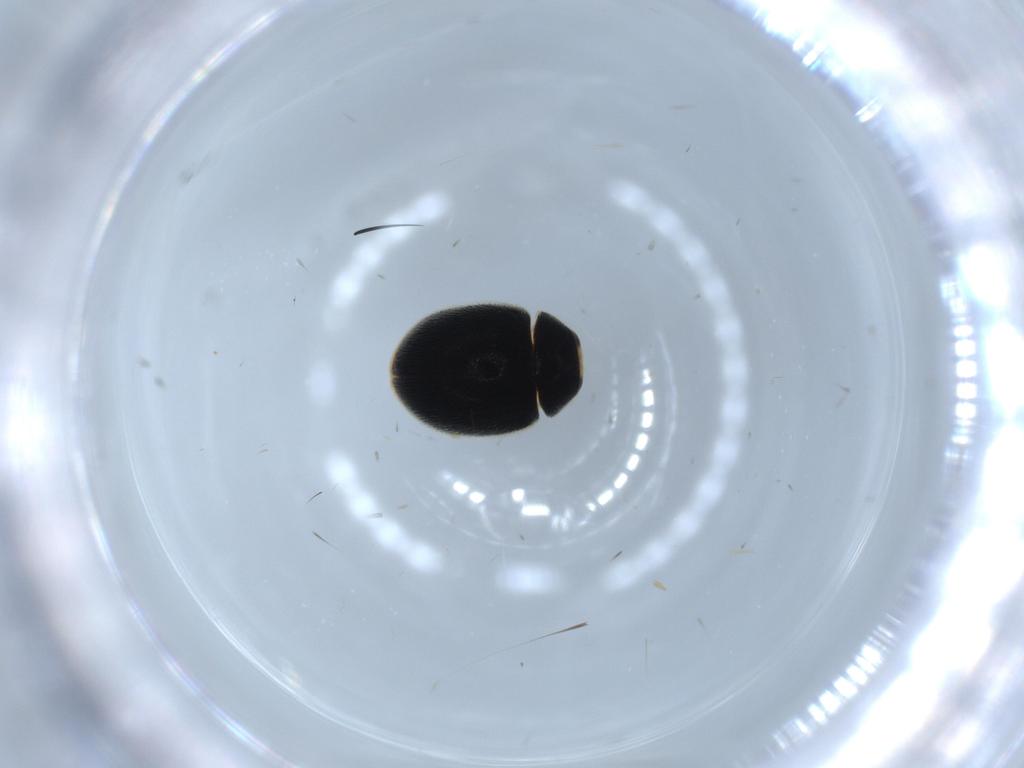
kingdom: Animalia
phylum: Arthropoda
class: Insecta
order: Coleoptera
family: Coccinellidae
